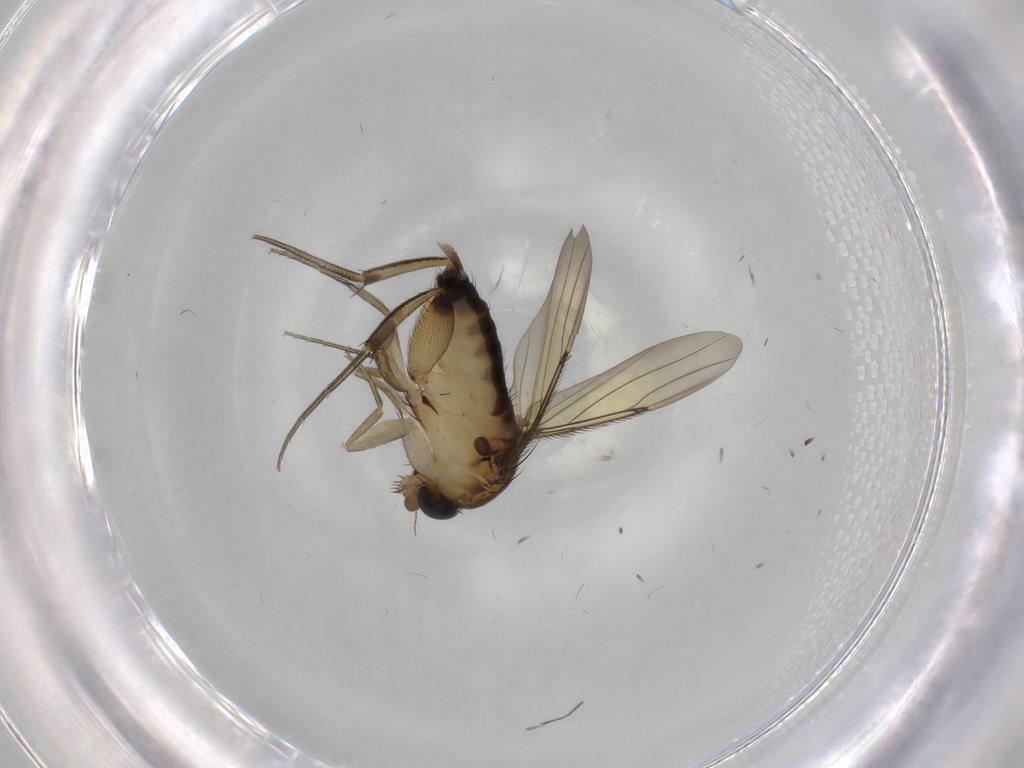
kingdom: Animalia
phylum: Arthropoda
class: Insecta
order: Diptera
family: Phoridae
